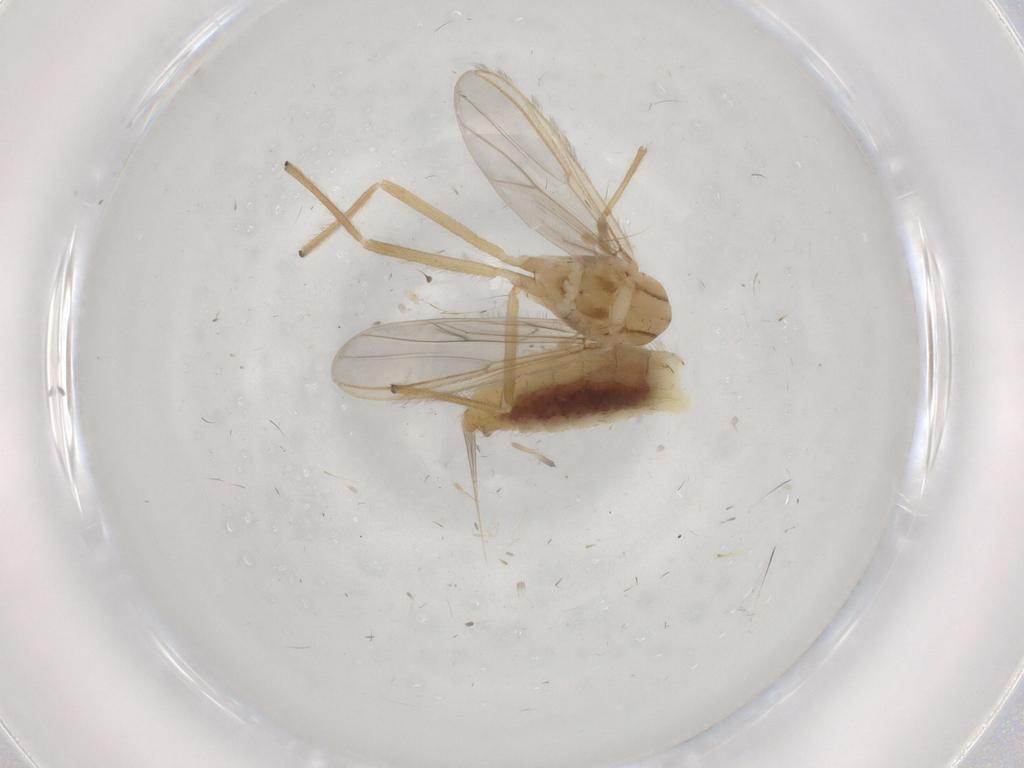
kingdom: Animalia
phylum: Arthropoda
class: Insecta
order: Diptera
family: Chironomidae
